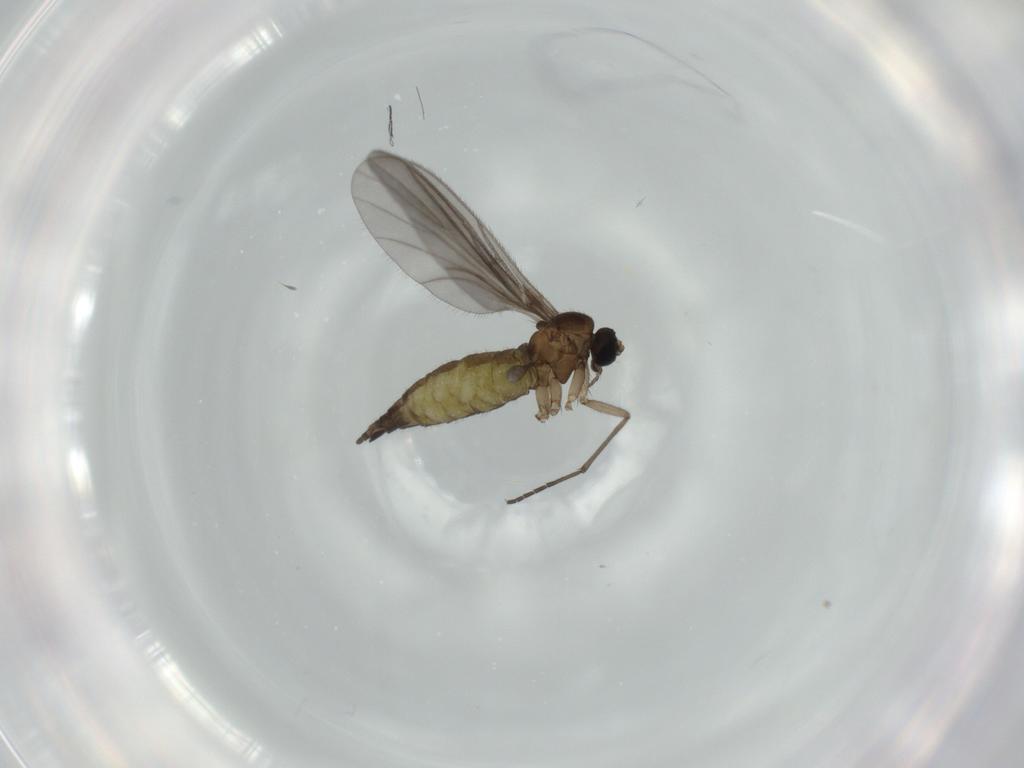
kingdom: Animalia
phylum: Arthropoda
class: Insecta
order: Diptera
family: Sciaridae
